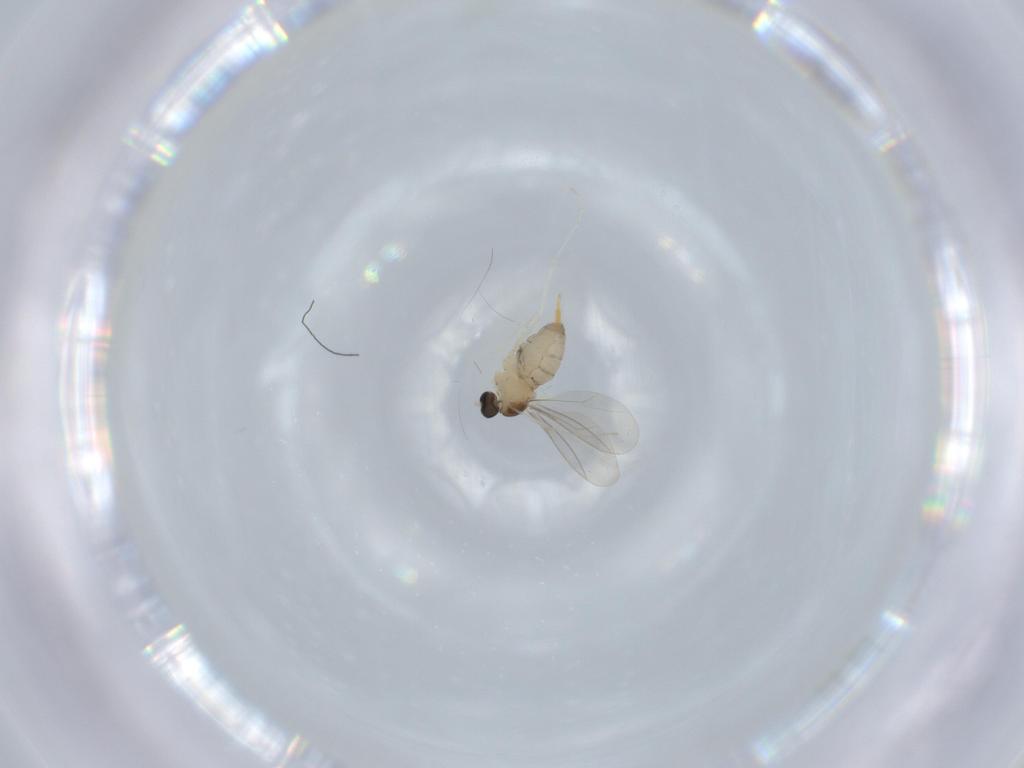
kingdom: Animalia
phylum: Arthropoda
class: Insecta
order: Diptera
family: Cecidomyiidae
